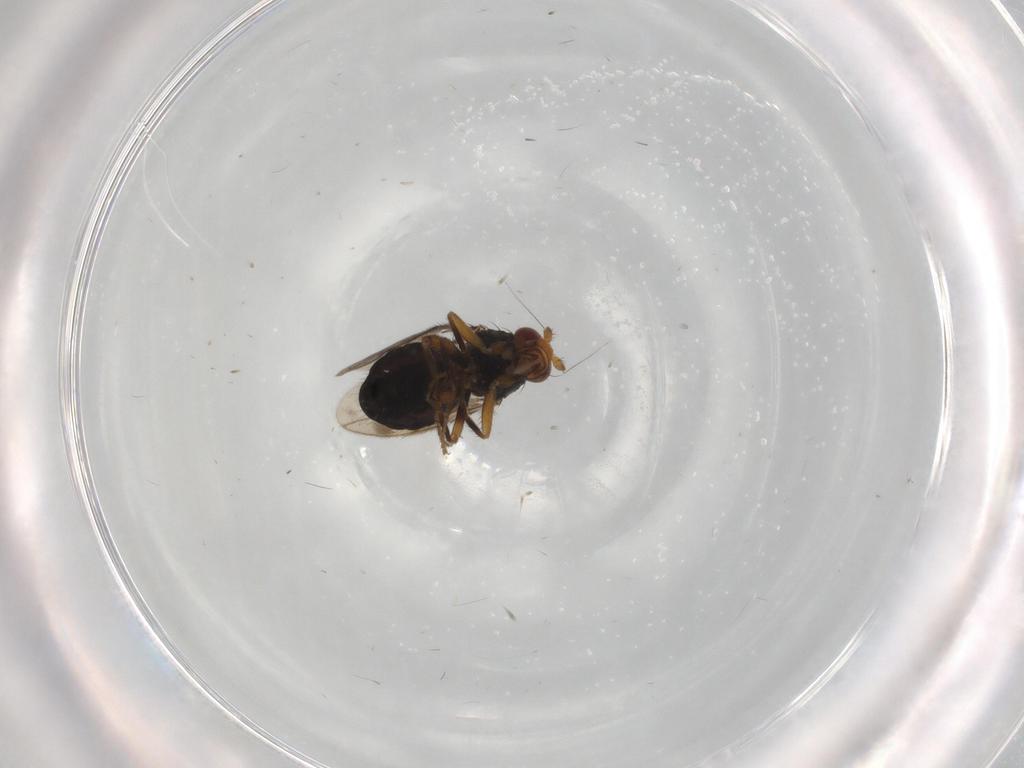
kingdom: Animalia
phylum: Arthropoda
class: Insecta
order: Diptera
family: Sphaeroceridae
